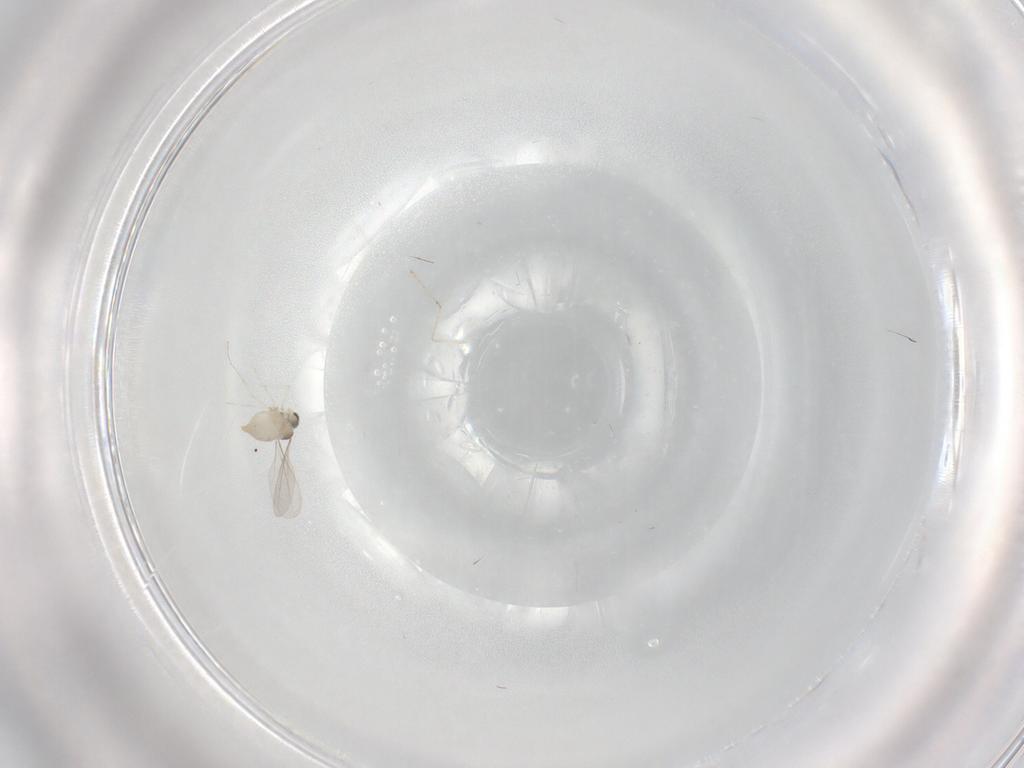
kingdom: Animalia
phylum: Arthropoda
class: Insecta
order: Diptera
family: Cecidomyiidae
